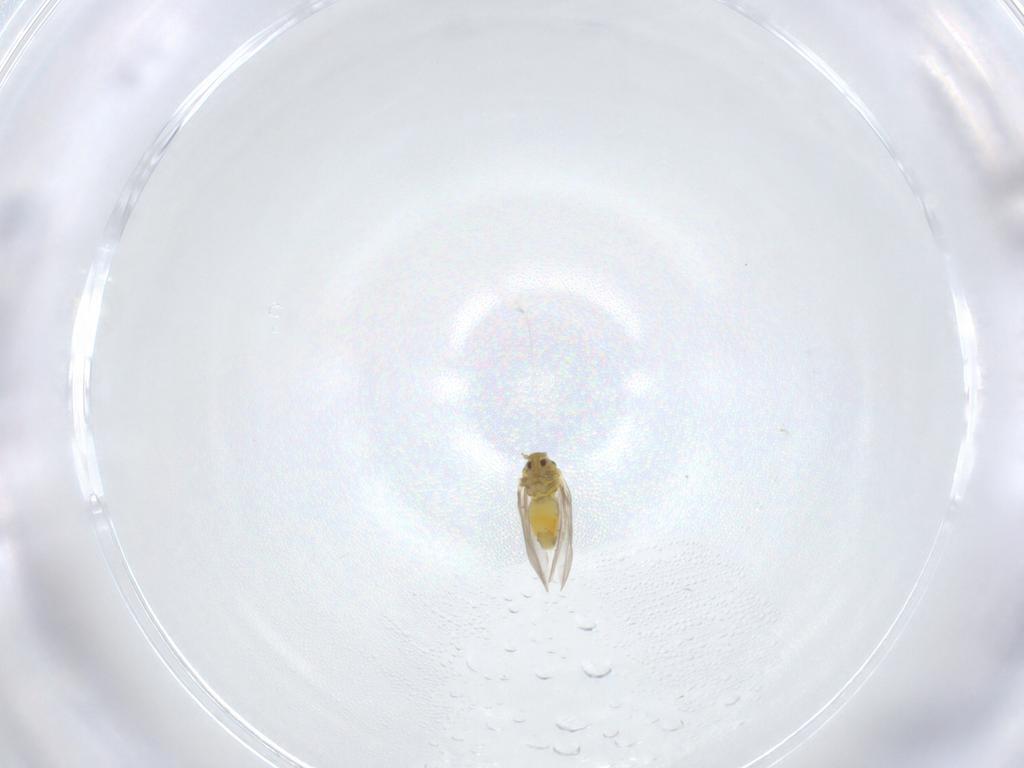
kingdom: Animalia
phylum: Arthropoda
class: Insecta
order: Hemiptera
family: Aleyrodidae
